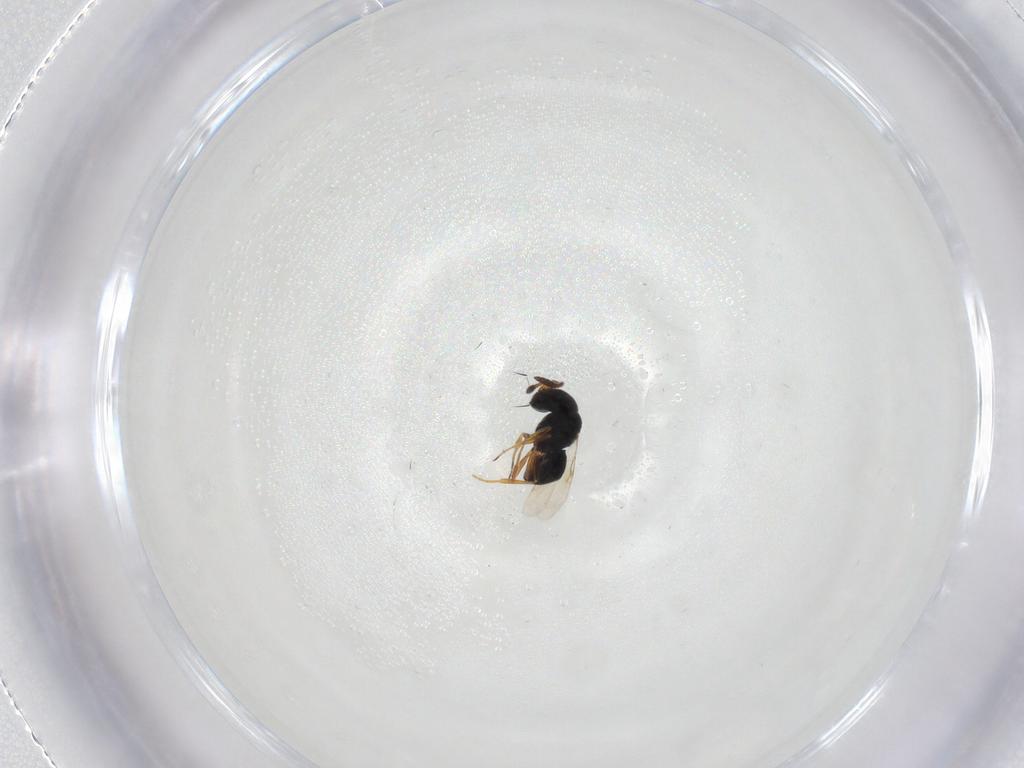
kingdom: Animalia
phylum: Arthropoda
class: Insecta
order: Hymenoptera
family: Scelionidae
